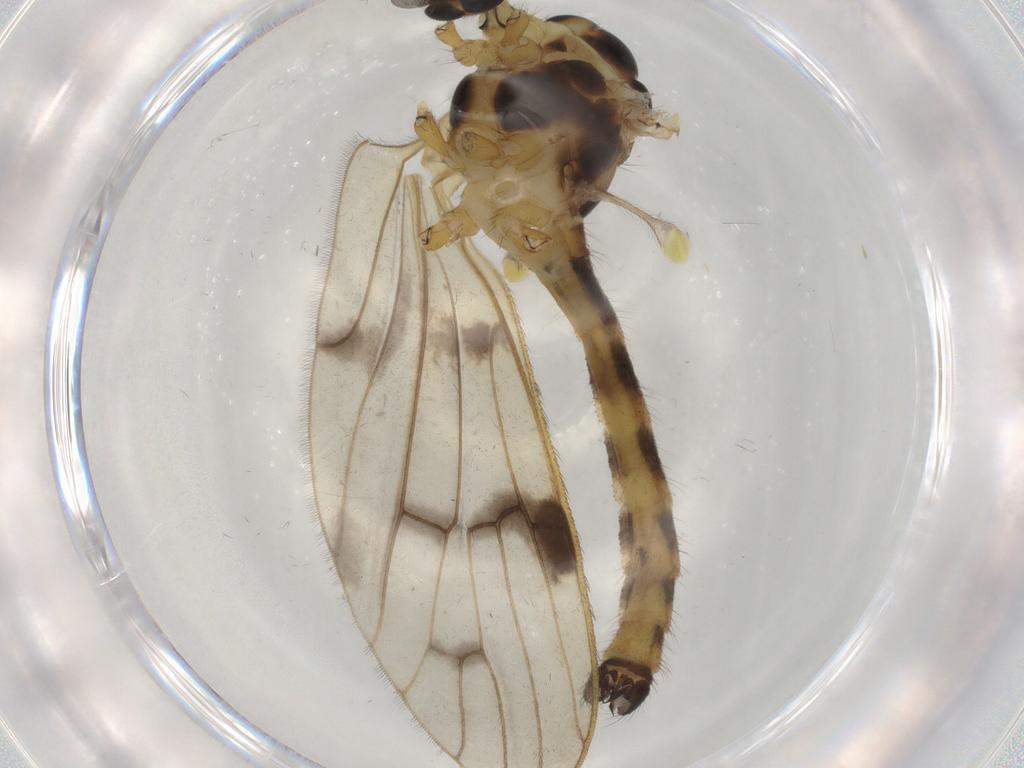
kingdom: Animalia
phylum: Arthropoda
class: Insecta
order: Diptera
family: Limoniidae
